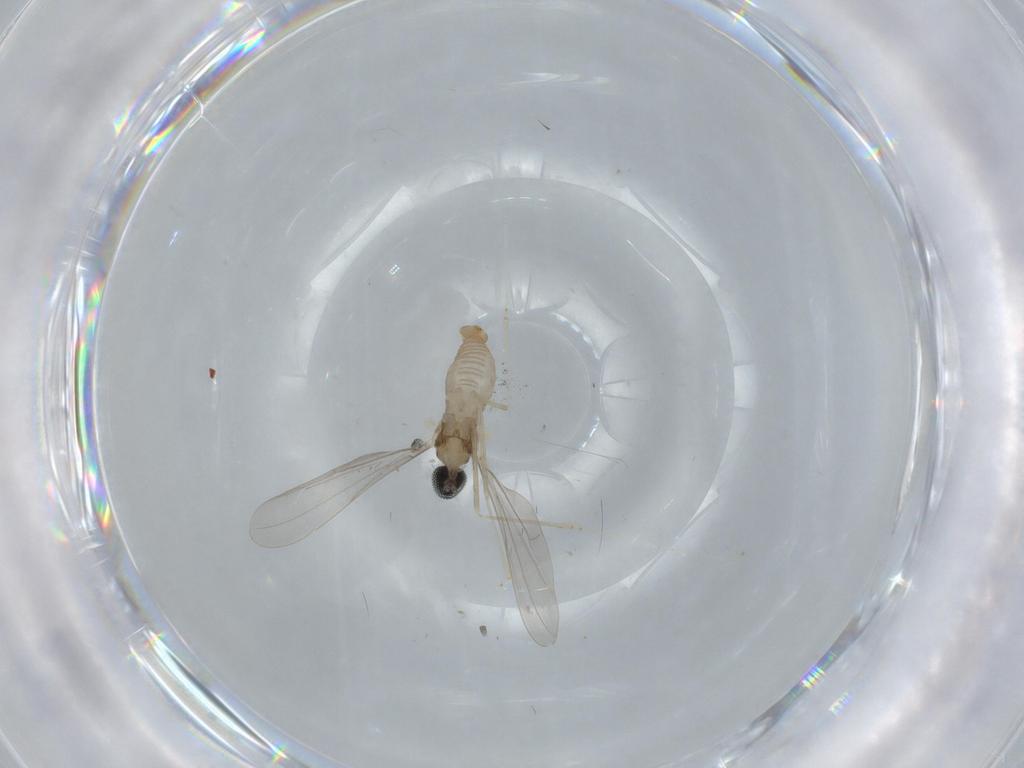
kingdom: Animalia
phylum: Arthropoda
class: Insecta
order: Diptera
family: Cecidomyiidae
